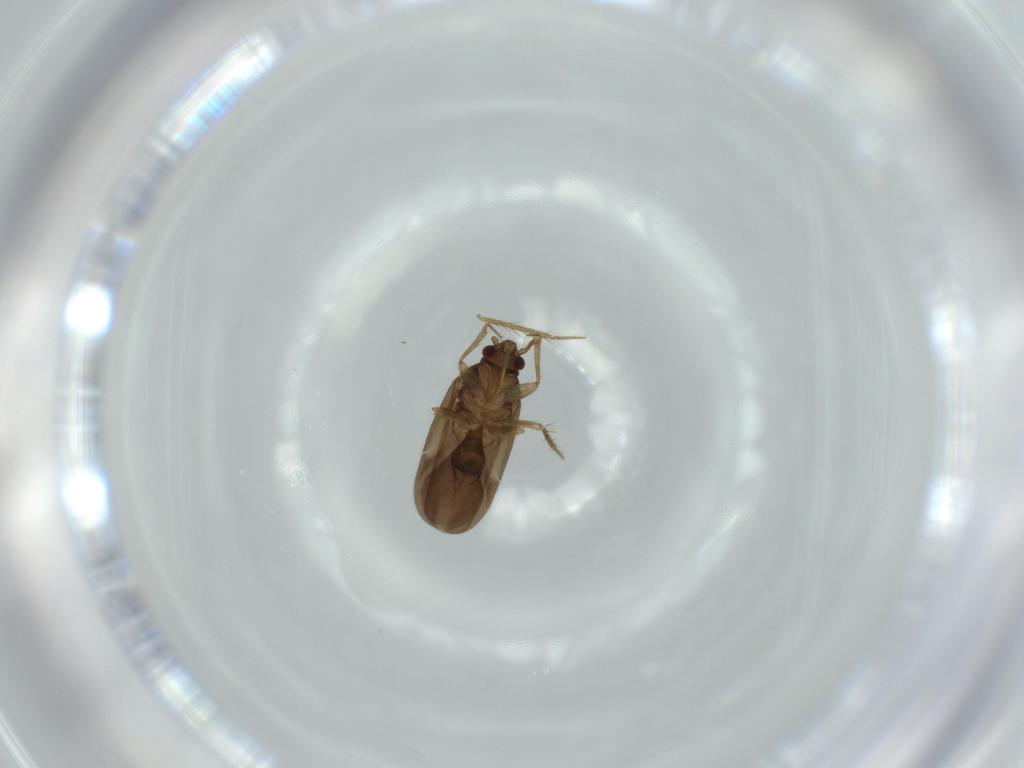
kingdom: Animalia
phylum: Arthropoda
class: Insecta
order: Hemiptera
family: Ceratocombidae
